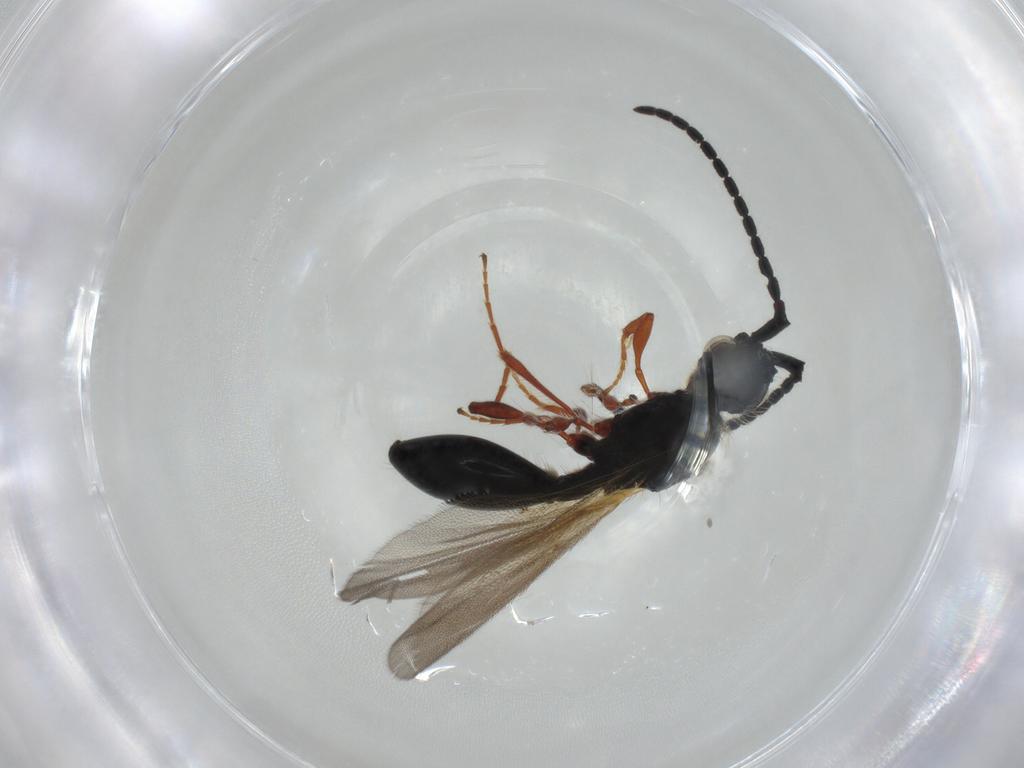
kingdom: Animalia
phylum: Arthropoda
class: Insecta
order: Hymenoptera
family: Diapriidae
